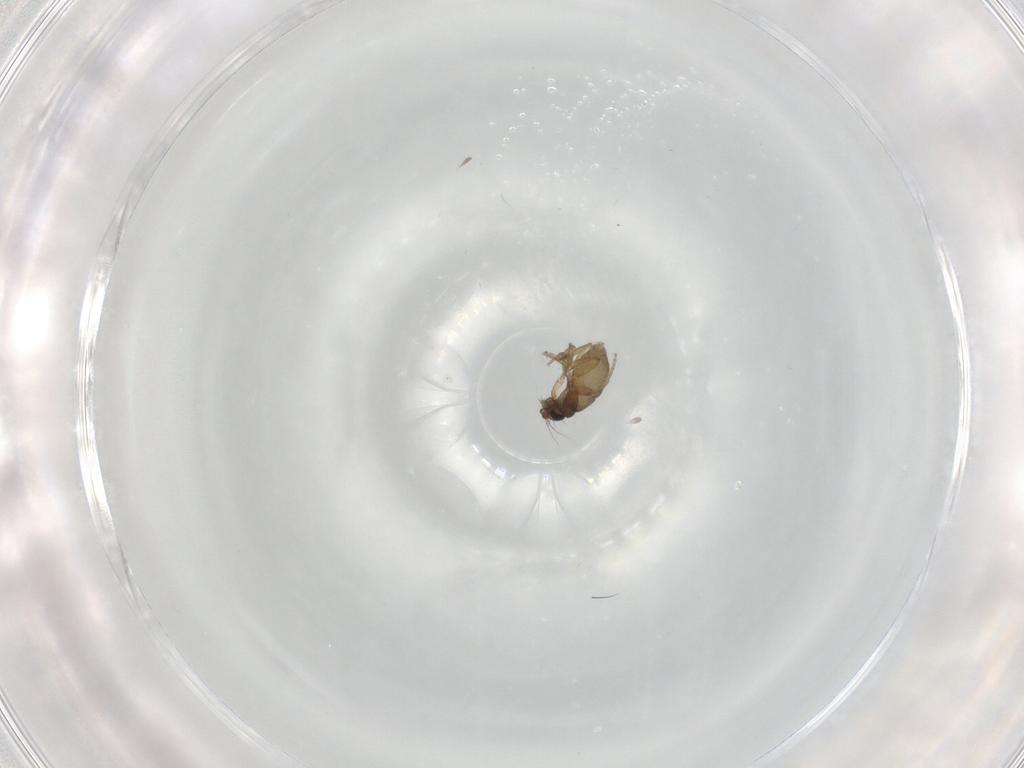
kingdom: Animalia
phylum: Arthropoda
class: Insecta
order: Diptera
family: Phoridae
